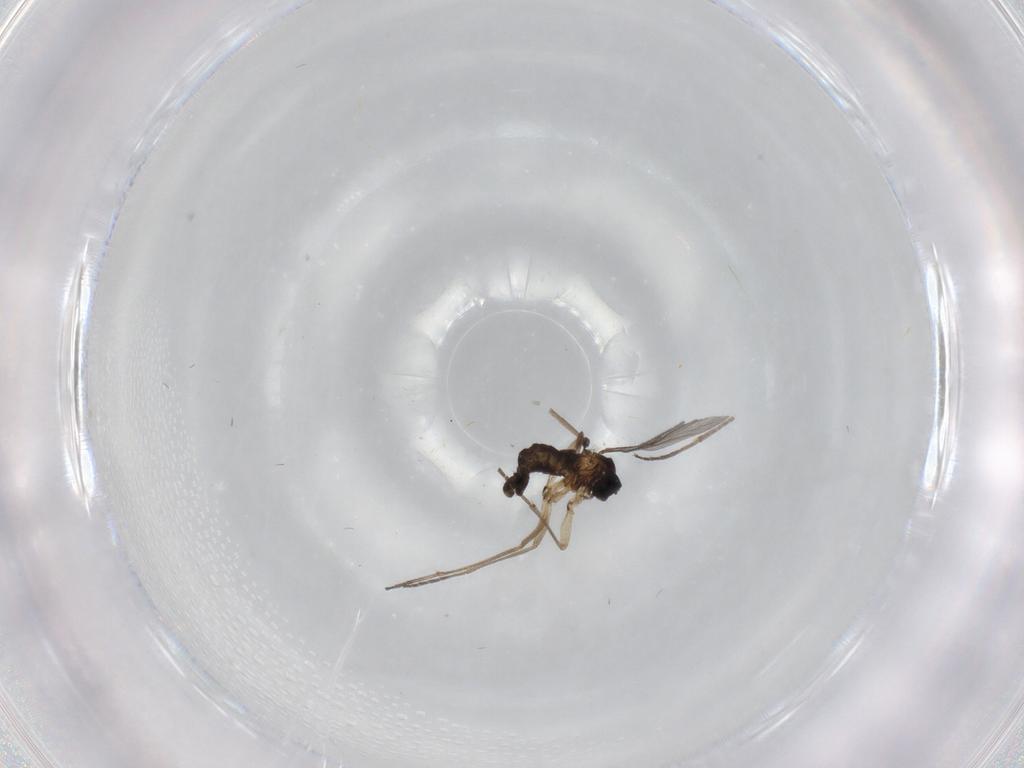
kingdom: Animalia
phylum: Arthropoda
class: Insecta
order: Diptera
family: Sciaridae
